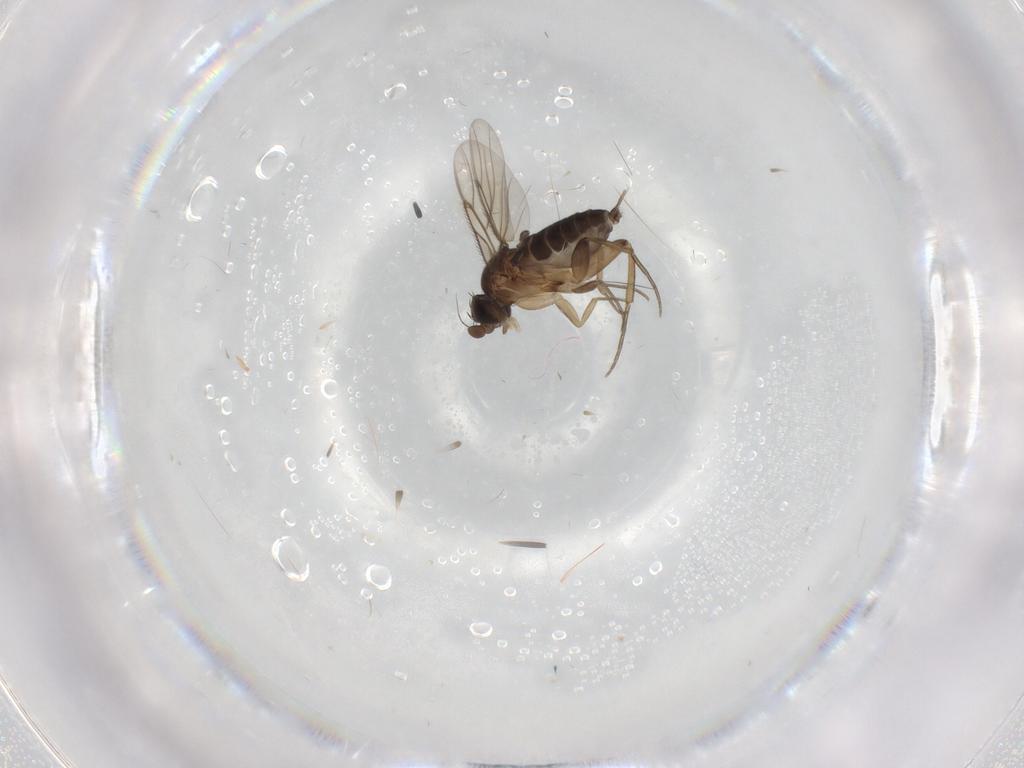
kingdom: Animalia
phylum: Arthropoda
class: Insecta
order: Diptera
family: Phoridae
